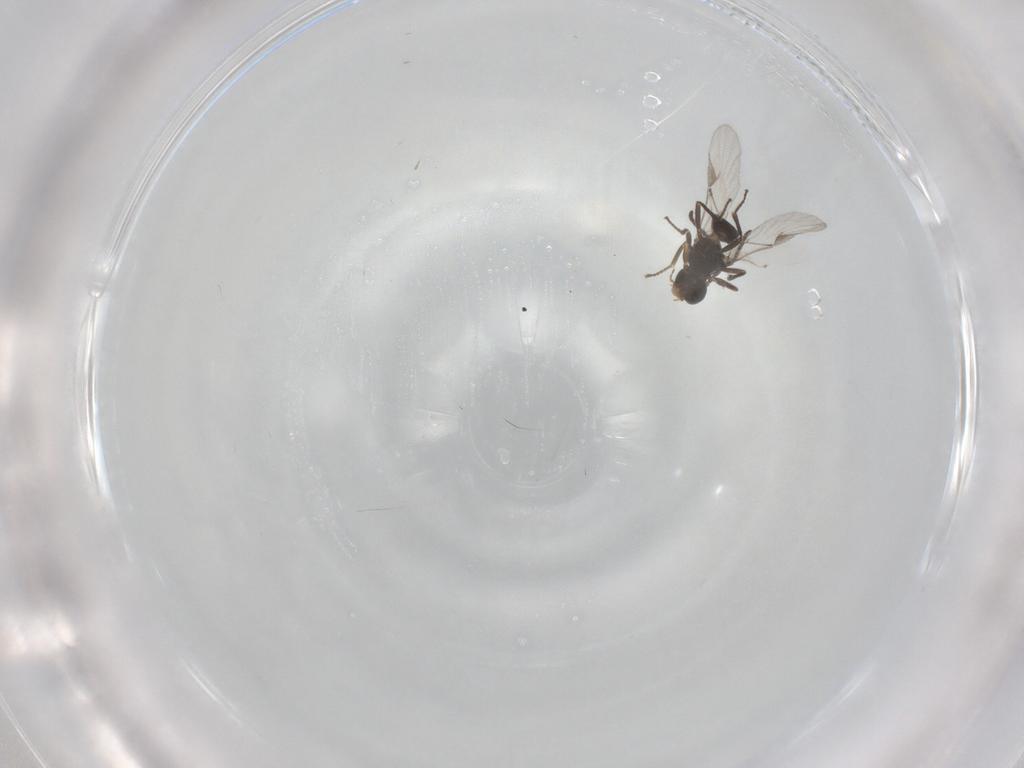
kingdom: Animalia
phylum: Arthropoda
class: Insecta
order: Hymenoptera
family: Braconidae
